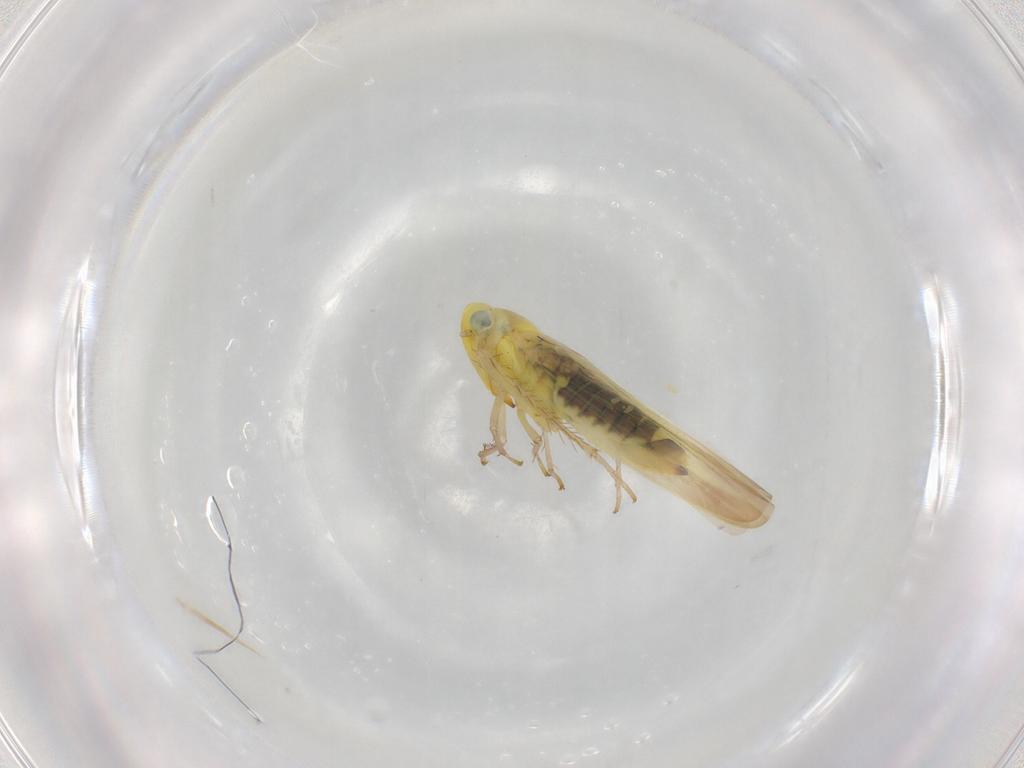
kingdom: Animalia
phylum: Arthropoda
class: Insecta
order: Hemiptera
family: Cicadellidae
